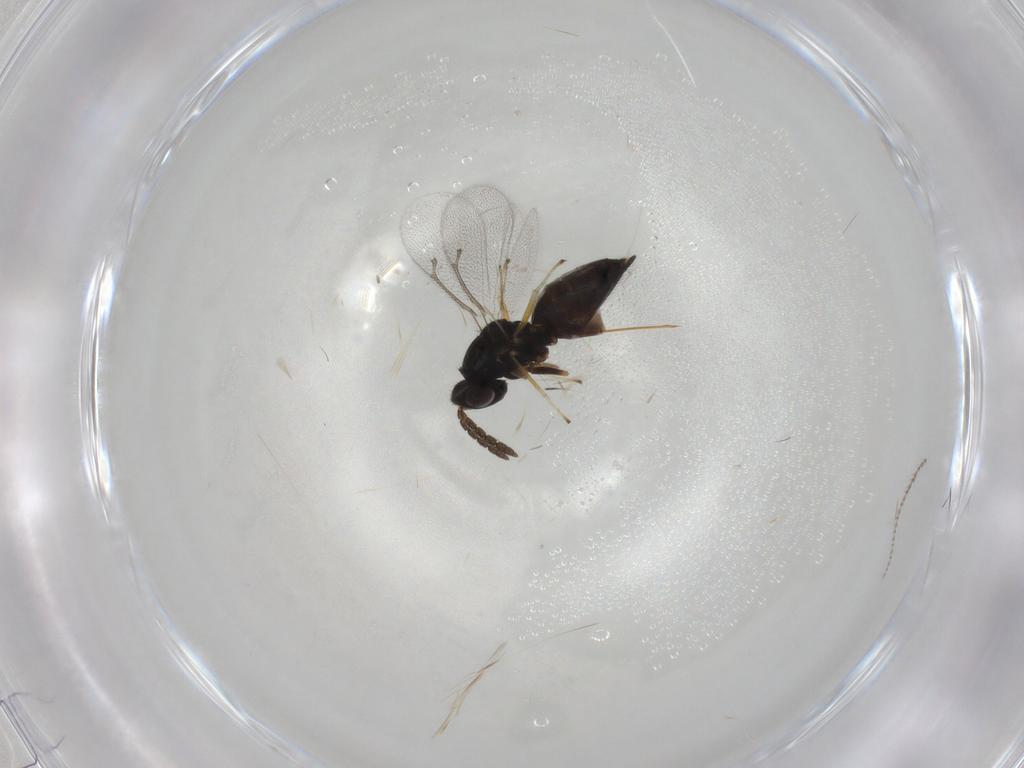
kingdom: Animalia
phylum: Arthropoda
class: Insecta
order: Hymenoptera
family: Eulophidae
